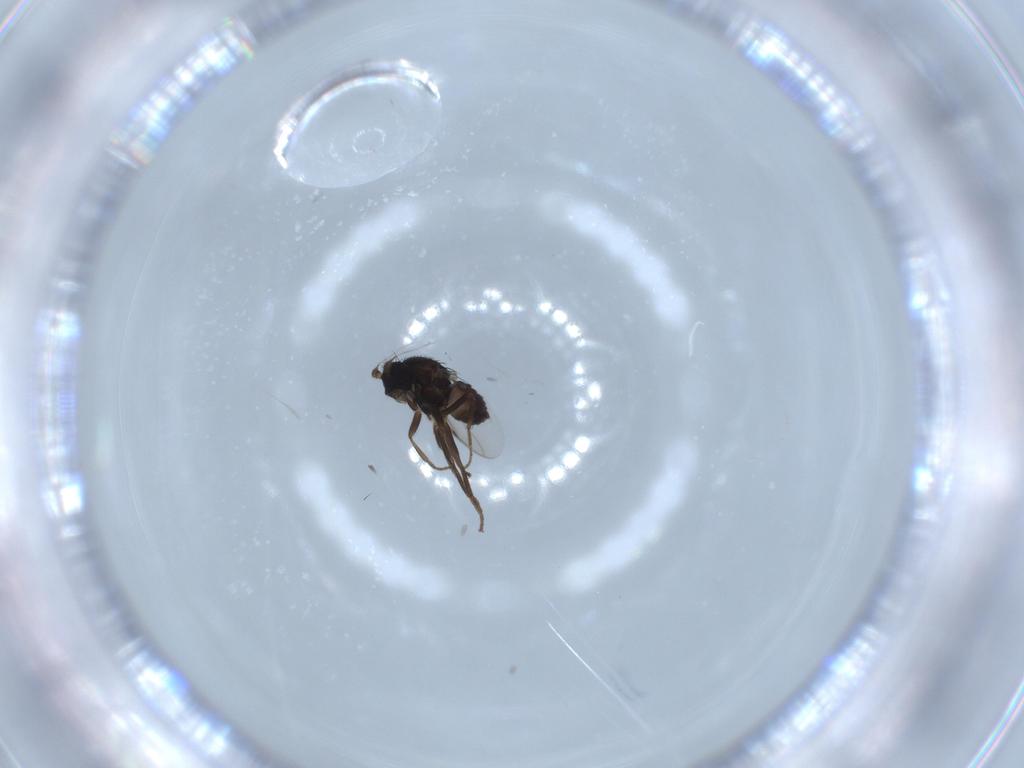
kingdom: Animalia
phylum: Arthropoda
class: Insecta
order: Diptera
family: Sphaeroceridae
